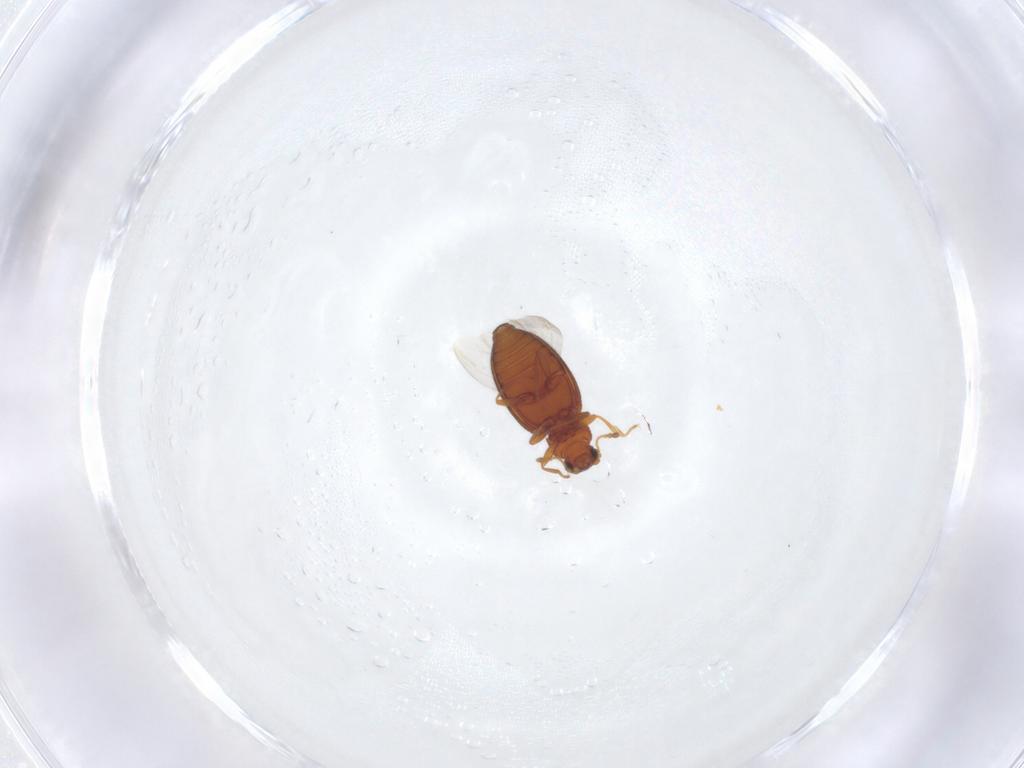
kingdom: Animalia
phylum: Arthropoda
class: Insecta
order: Coleoptera
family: Latridiidae
